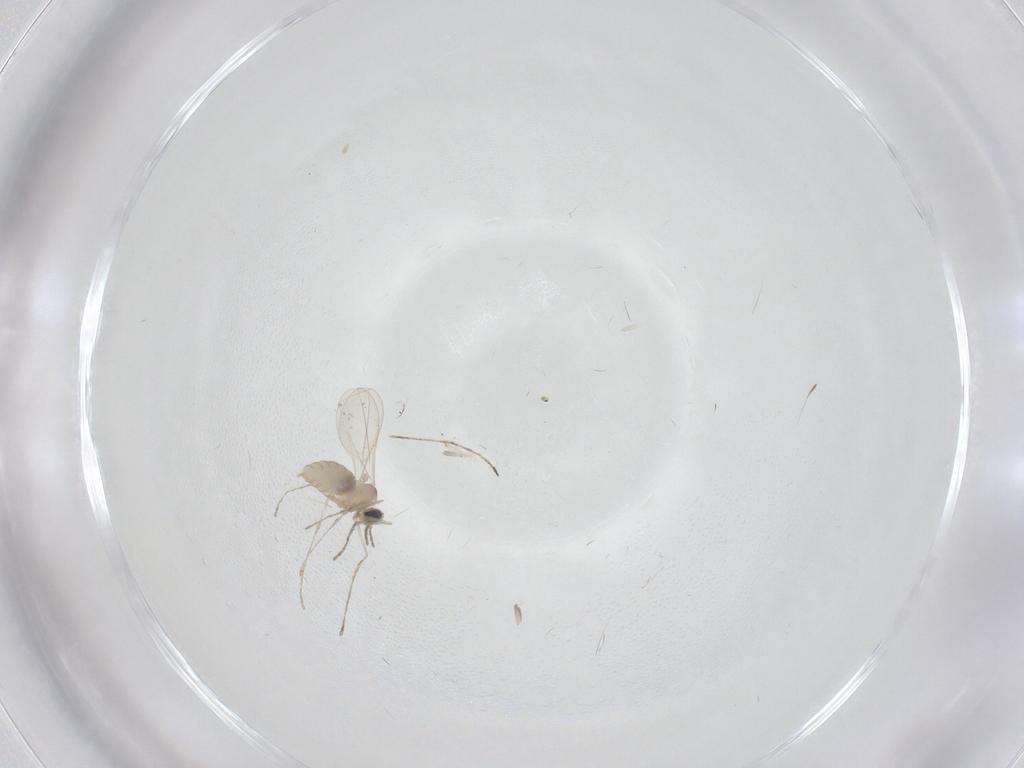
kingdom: Animalia
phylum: Arthropoda
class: Insecta
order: Diptera
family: Cecidomyiidae
